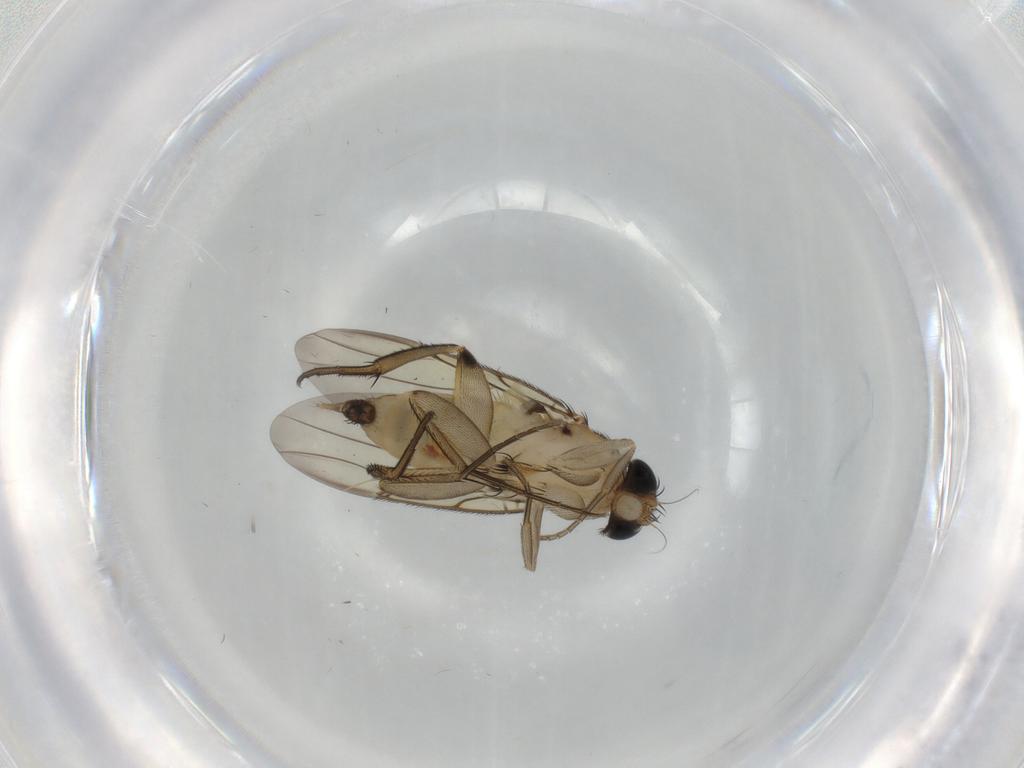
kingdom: Animalia
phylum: Arthropoda
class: Insecta
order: Diptera
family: Phoridae
